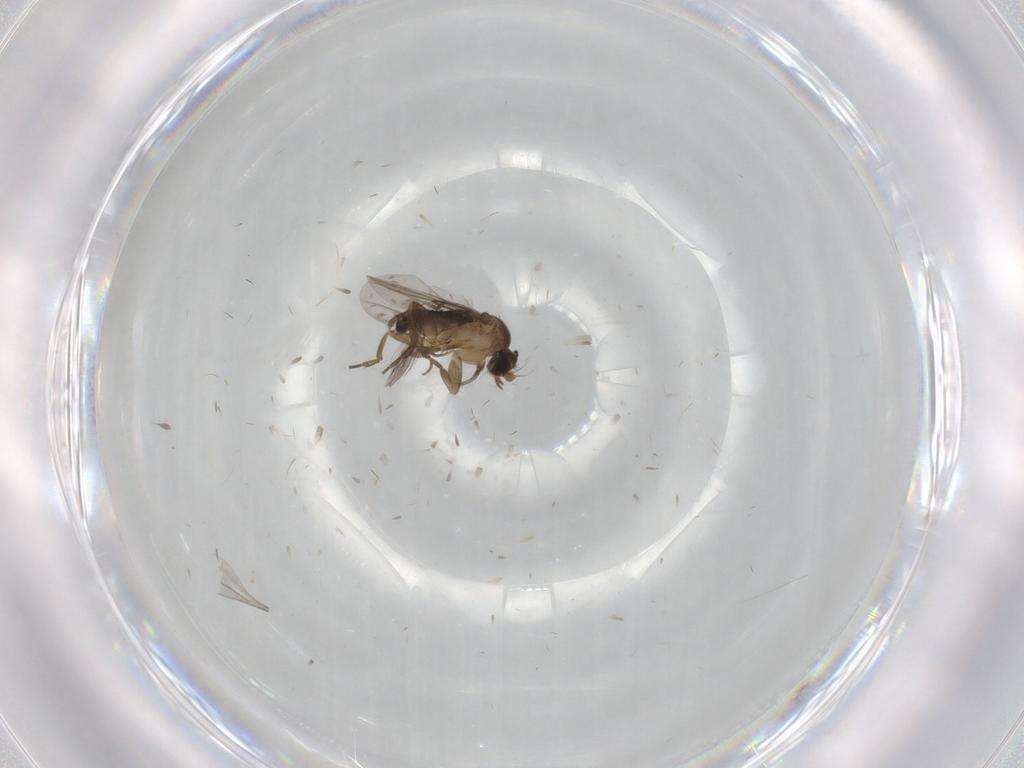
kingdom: Animalia
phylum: Arthropoda
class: Insecta
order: Diptera
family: Phoridae
